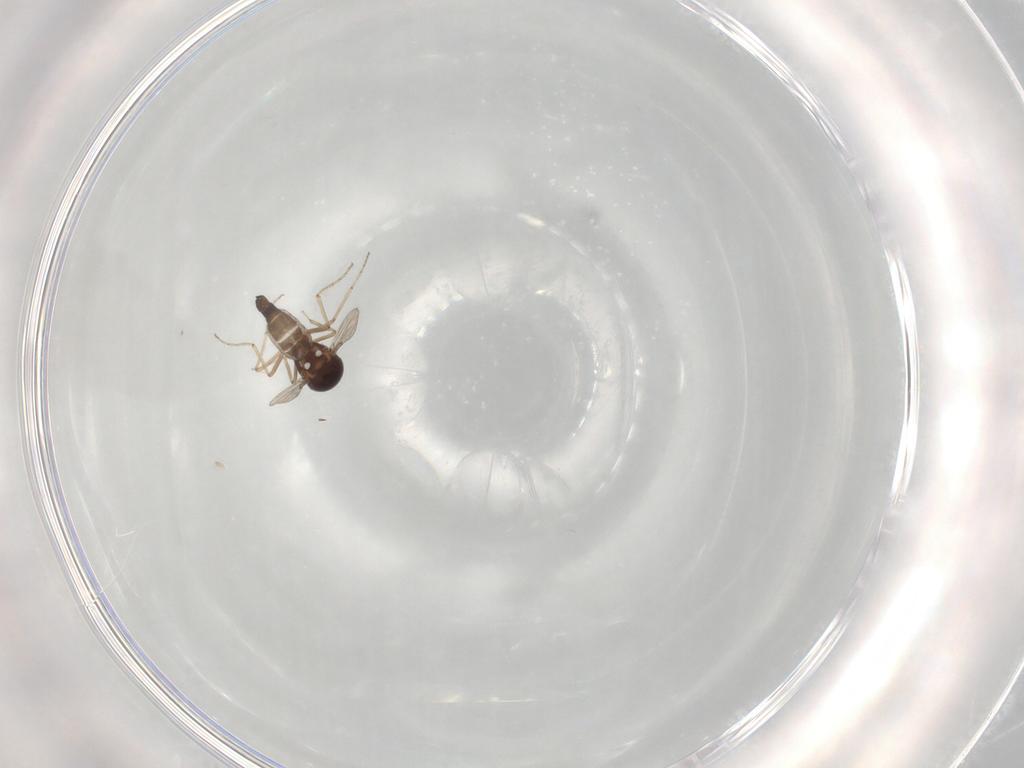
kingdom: Animalia
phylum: Arthropoda
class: Insecta
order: Diptera
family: Ceratopogonidae
